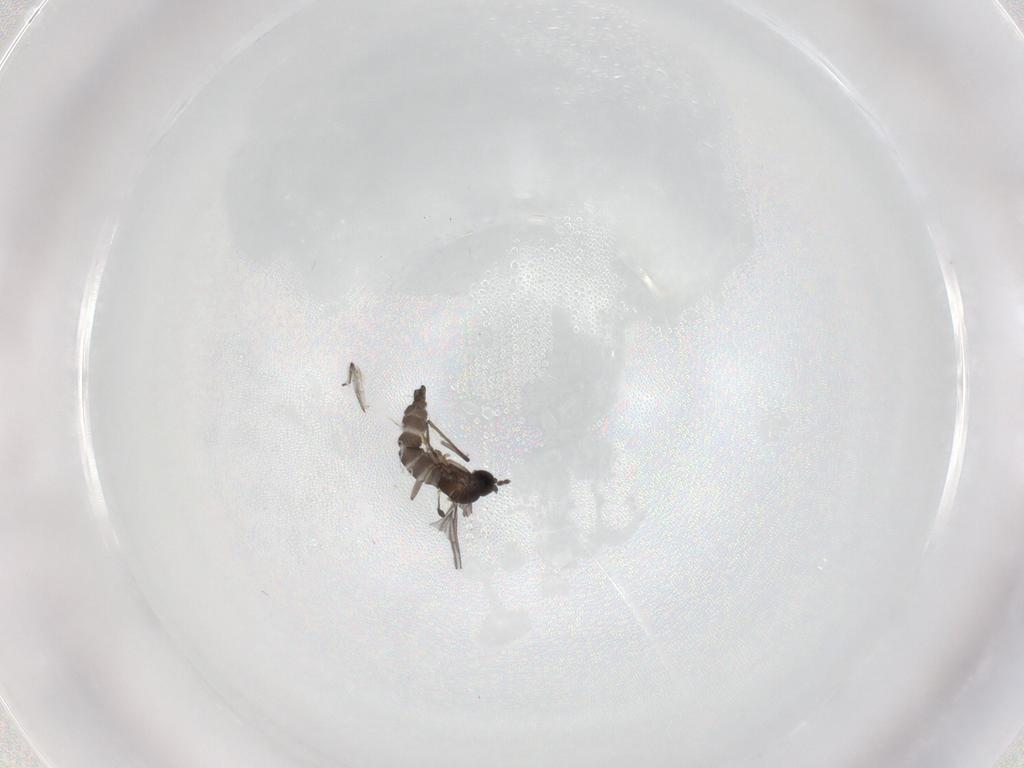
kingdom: Animalia
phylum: Arthropoda
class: Insecta
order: Diptera
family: Phoridae
